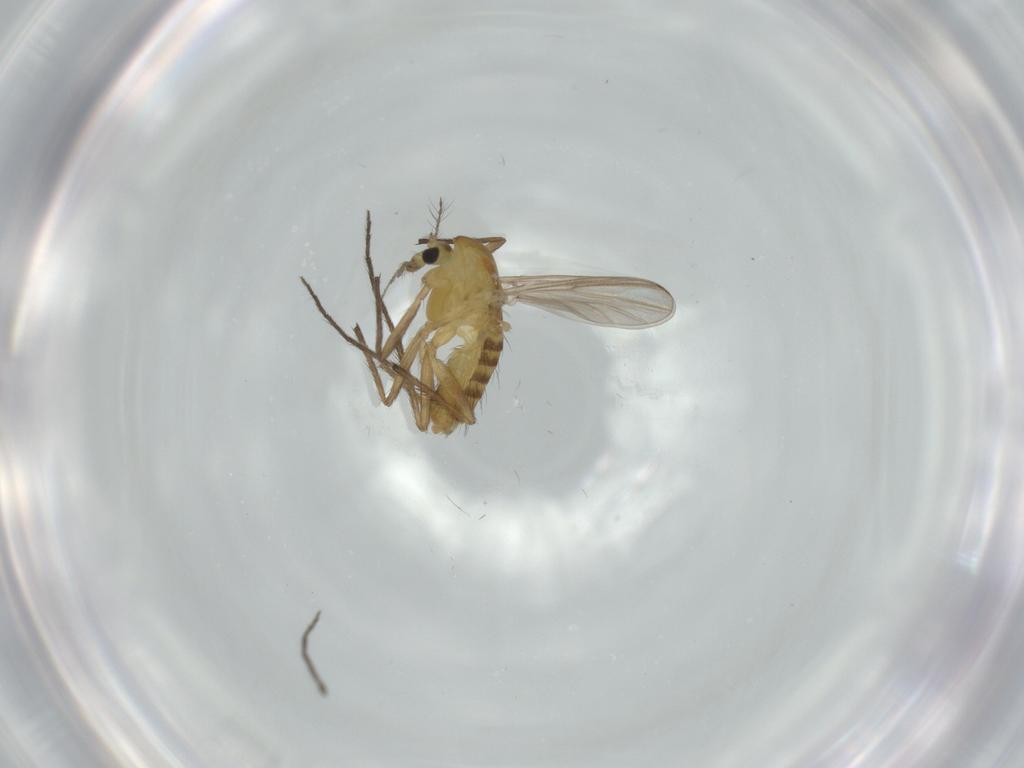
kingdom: Animalia
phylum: Arthropoda
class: Insecta
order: Diptera
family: Chironomidae
